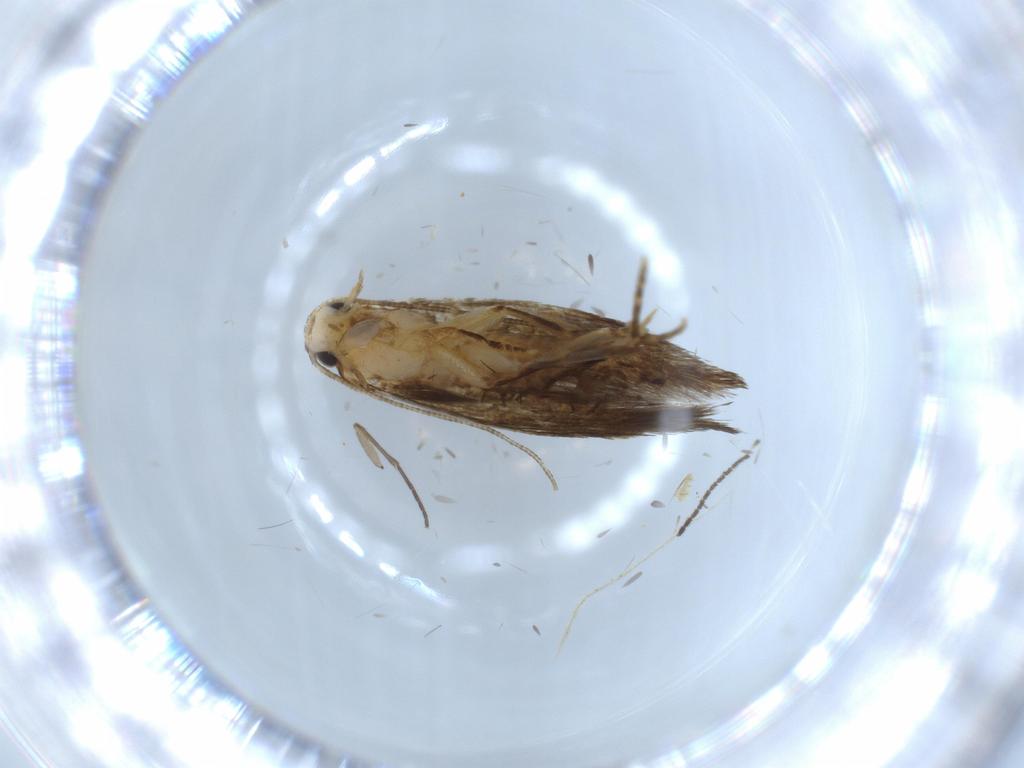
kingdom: Animalia
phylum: Arthropoda
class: Insecta
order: Lepidoptera
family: Tineidae
